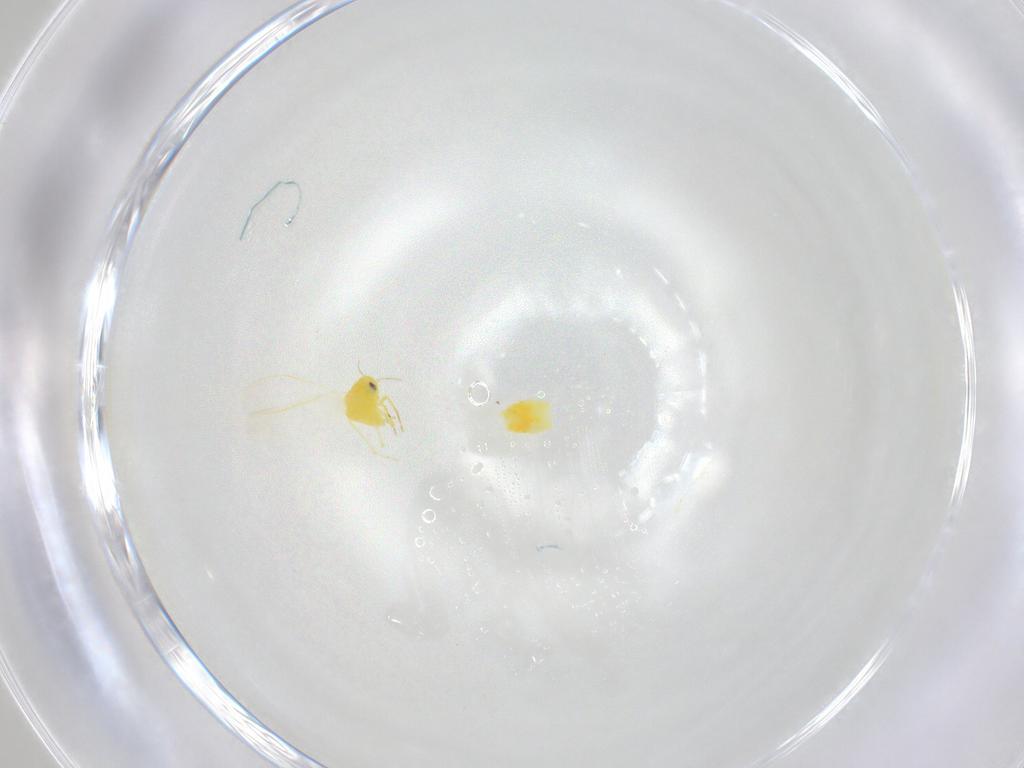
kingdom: Animalia
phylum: Arthropoda
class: Insecta
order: Hemiptera
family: Aleyrodidae
